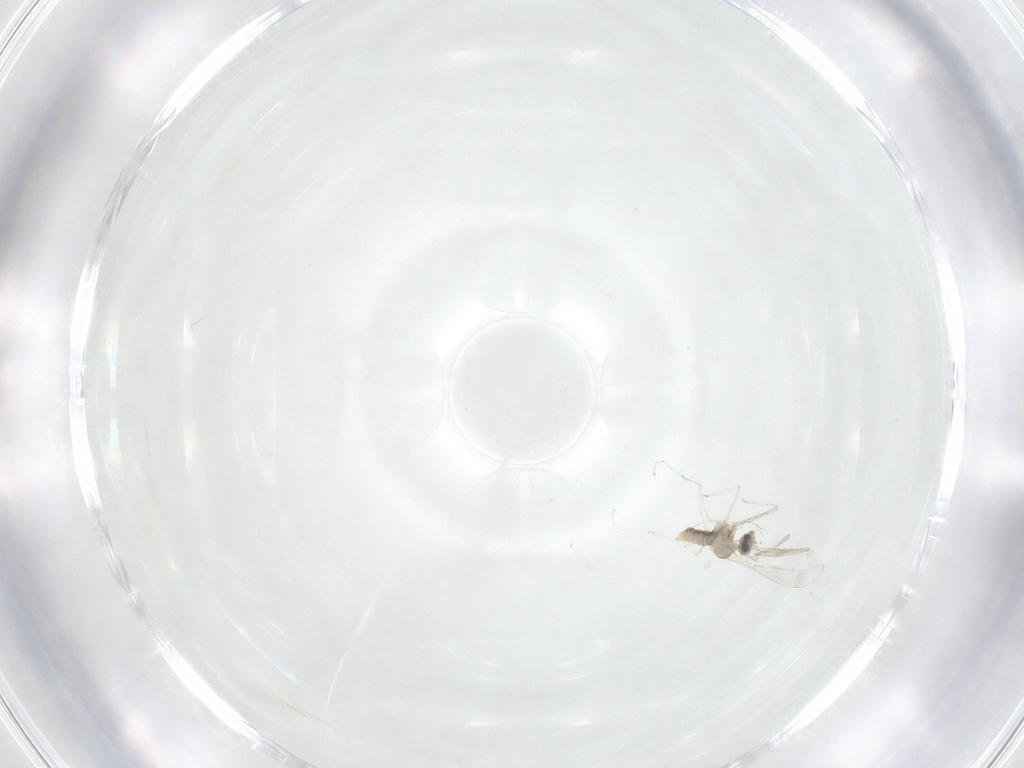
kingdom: Animalia
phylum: Arthropoda
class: Insecta
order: Diptera
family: Cecidomyiidae
